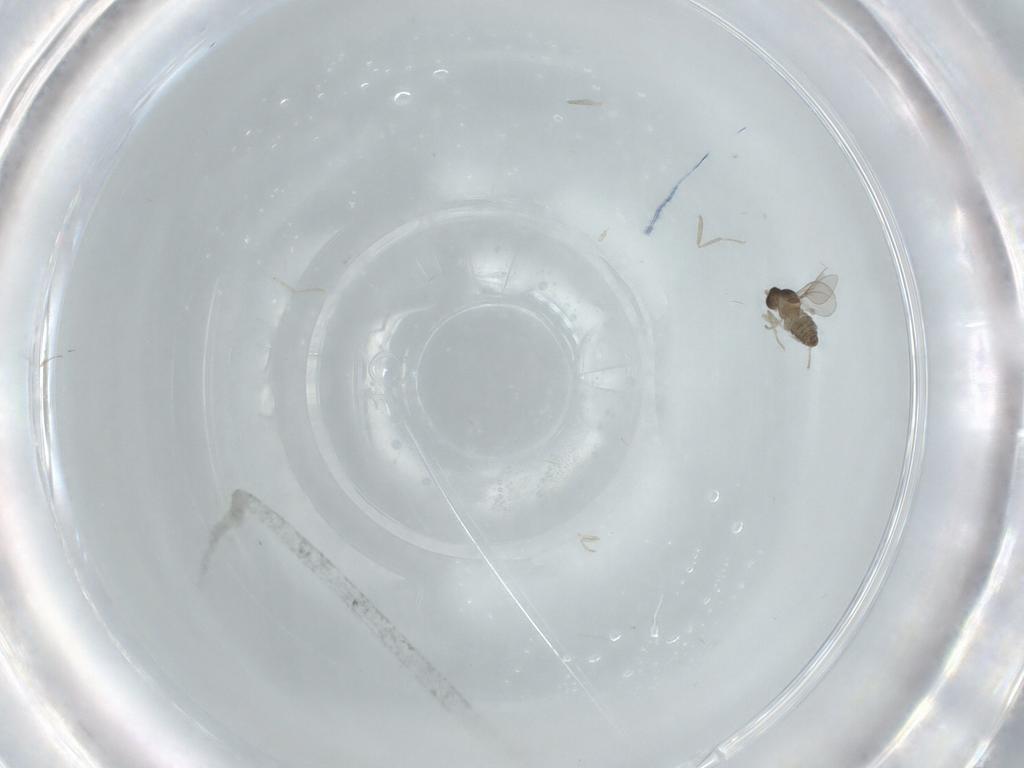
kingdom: Animalia
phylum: Arthropoda
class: Insecta
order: Diptera
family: Cecidomyiidae
